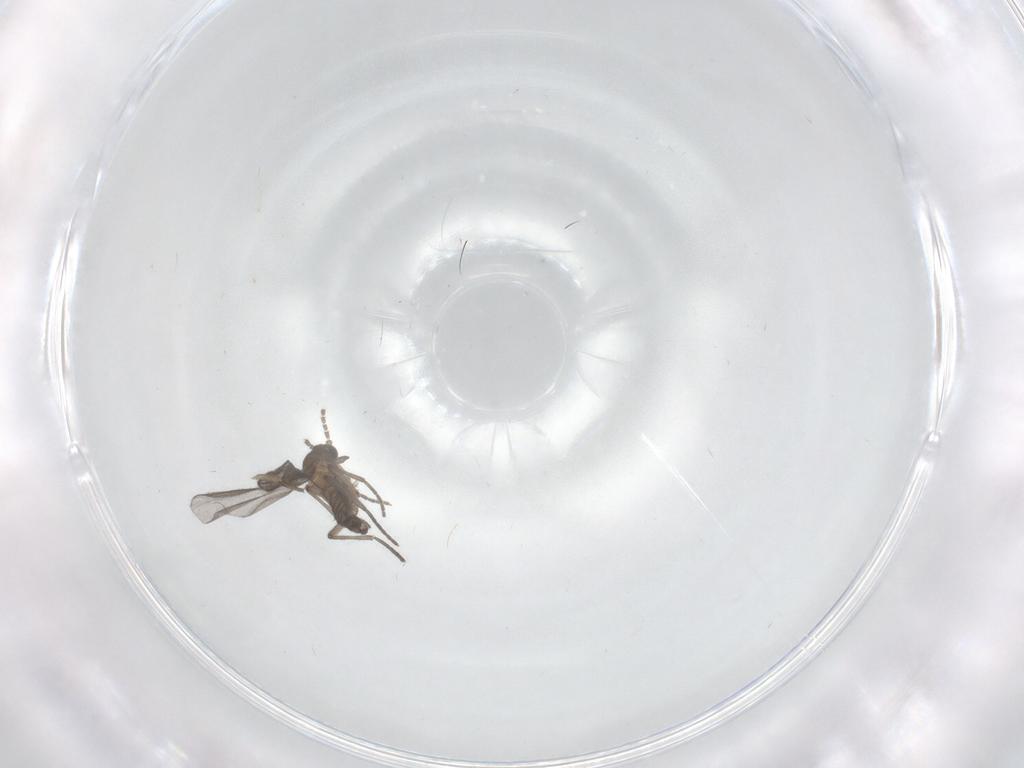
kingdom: Animalia
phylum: Arthropoda
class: Insecta
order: Diptera
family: Sciaridae
